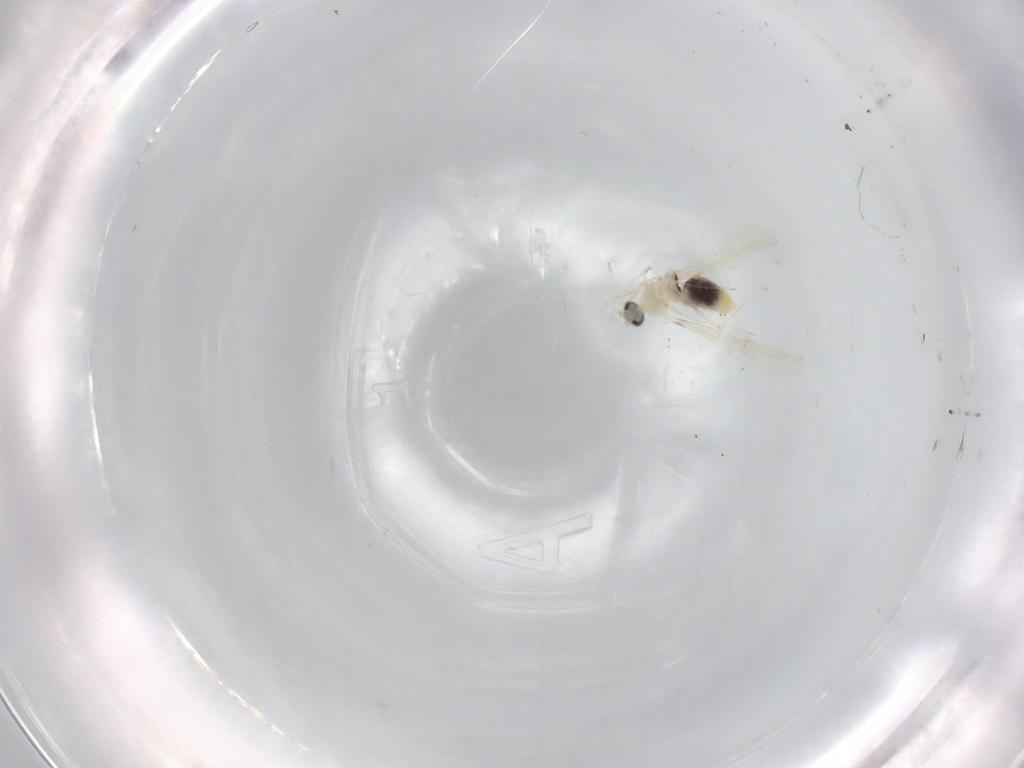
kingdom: Animalia
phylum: Arthropoda
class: Insecta
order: Diptera
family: Cecidomyiidae
